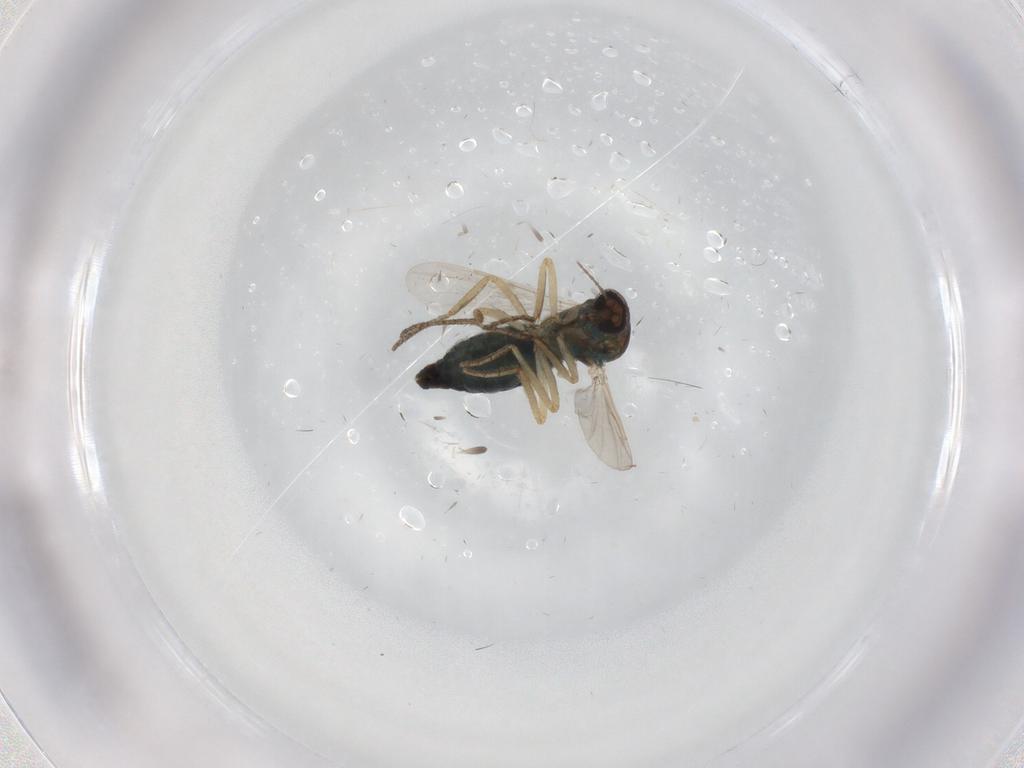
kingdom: Animalia
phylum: Arthropoda
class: Insecta
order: Diptera
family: Ceratopogonidae
